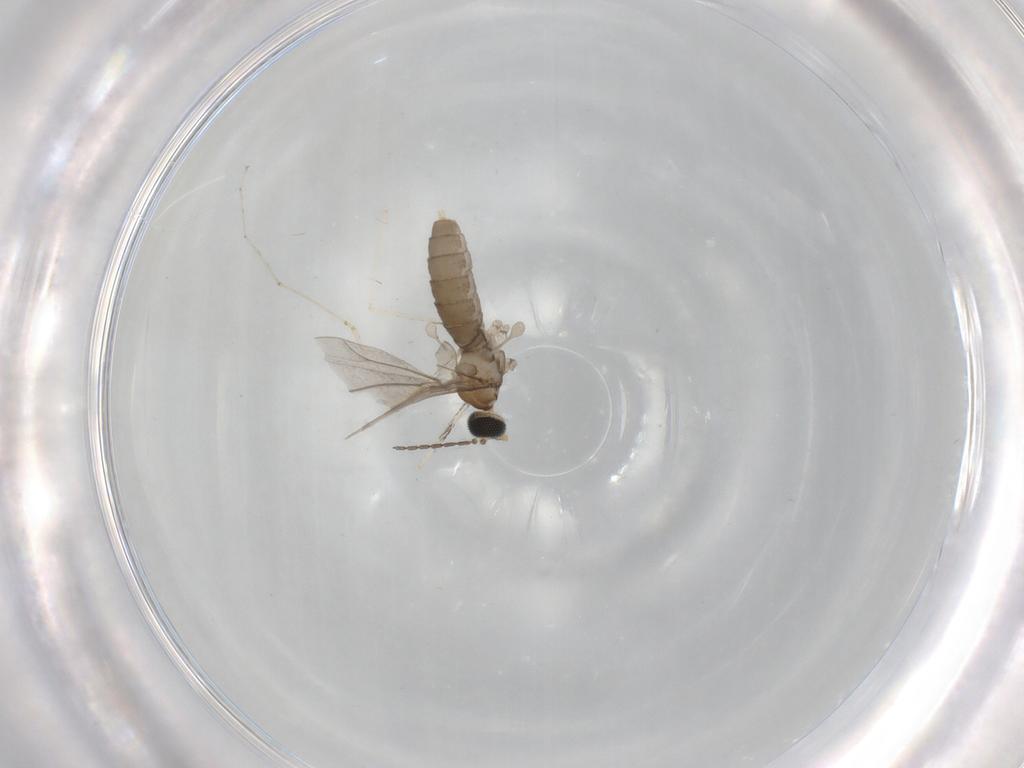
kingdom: Animalia
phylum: Arthropoda
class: Insecta
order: Diptera
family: Cecidomyiidae
